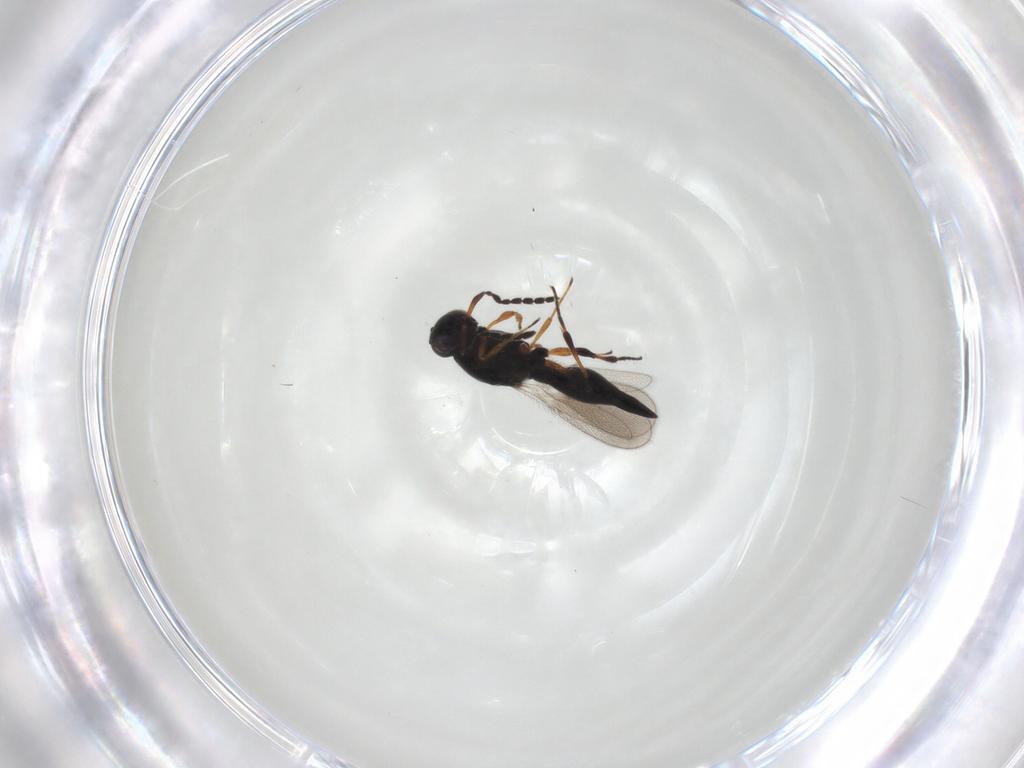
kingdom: Animalia
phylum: Arthropoda
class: Insecta
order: Hymenoptera
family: Platygastridae
